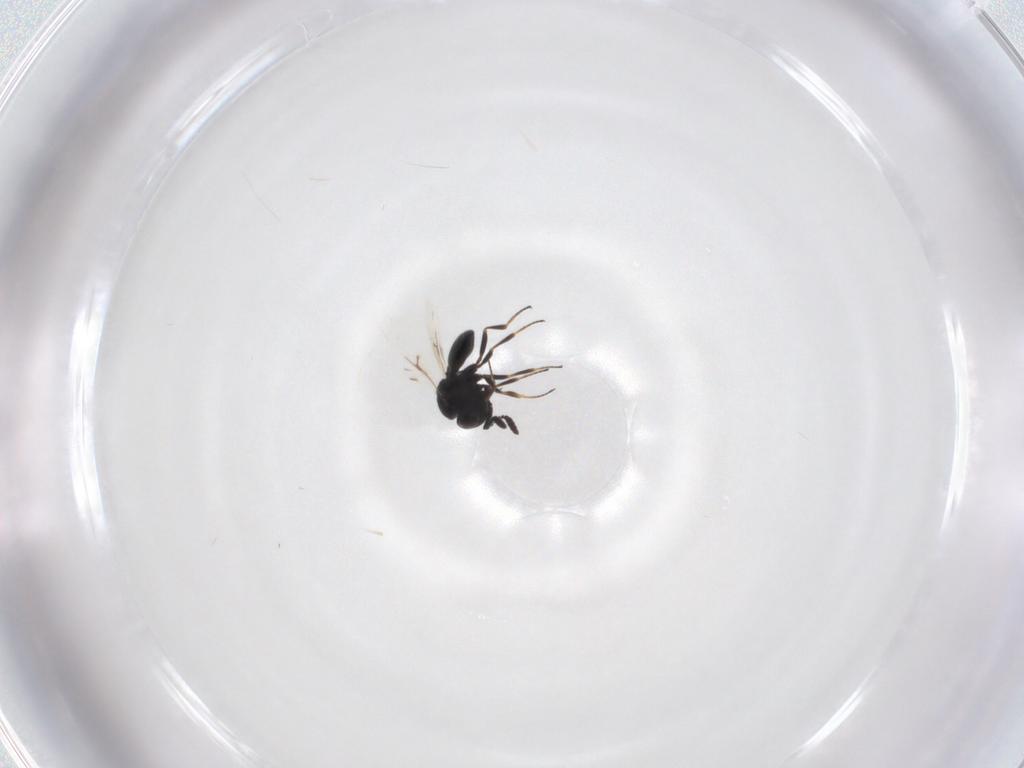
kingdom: Animalia
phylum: Arthropoda
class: Insecta
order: Hymenoptera
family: Scelionidae
